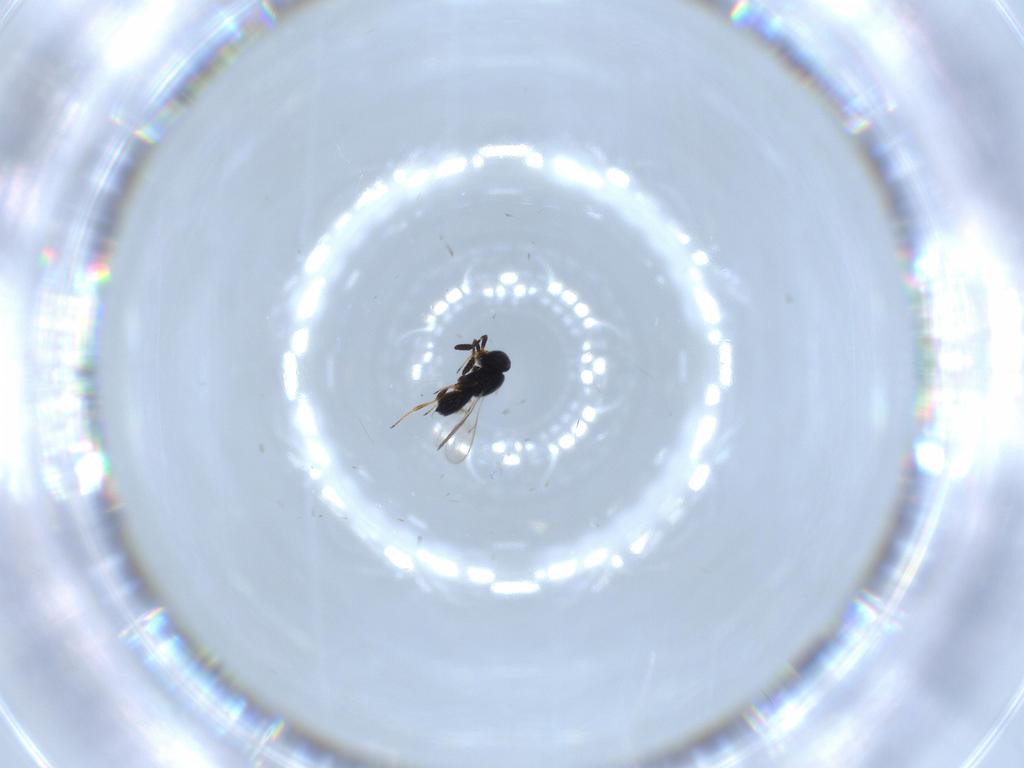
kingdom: Animalia
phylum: Arthropoda
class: Insecta
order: Hymenoptera
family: Scelionidae
